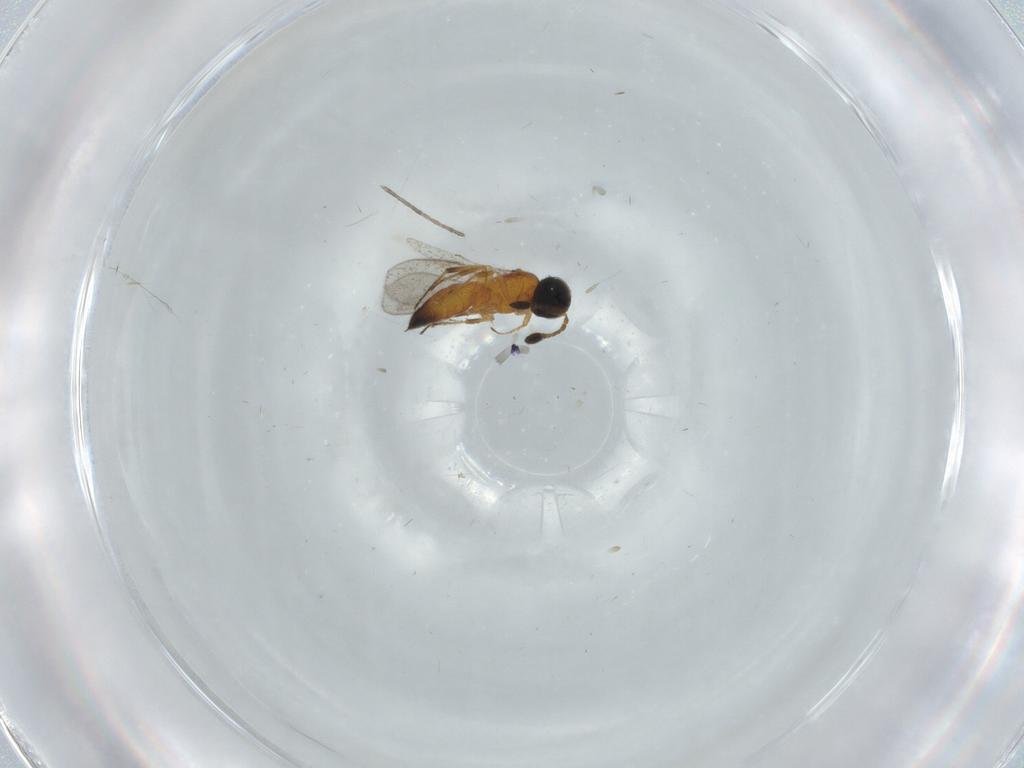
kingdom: Animalia
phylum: Arthropoda
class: Insecta
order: Hymenoptera
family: Scelionidae
